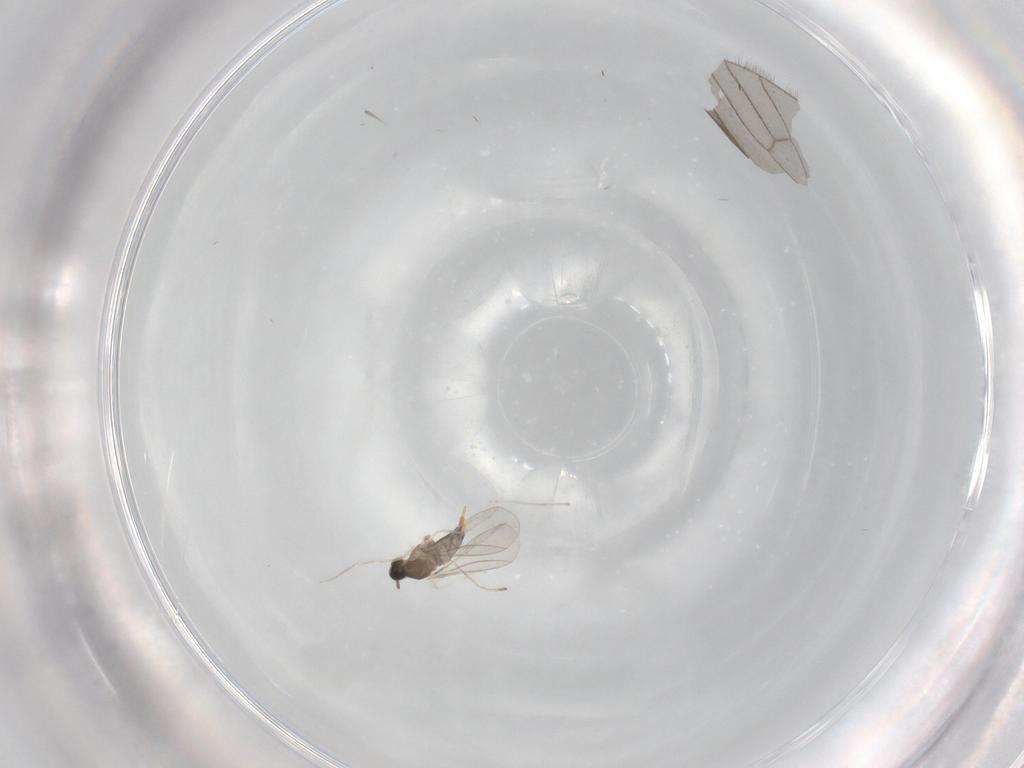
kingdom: Animalia
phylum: Arthropoda
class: Insecta
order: Diptera
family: Cecidomyiidae
